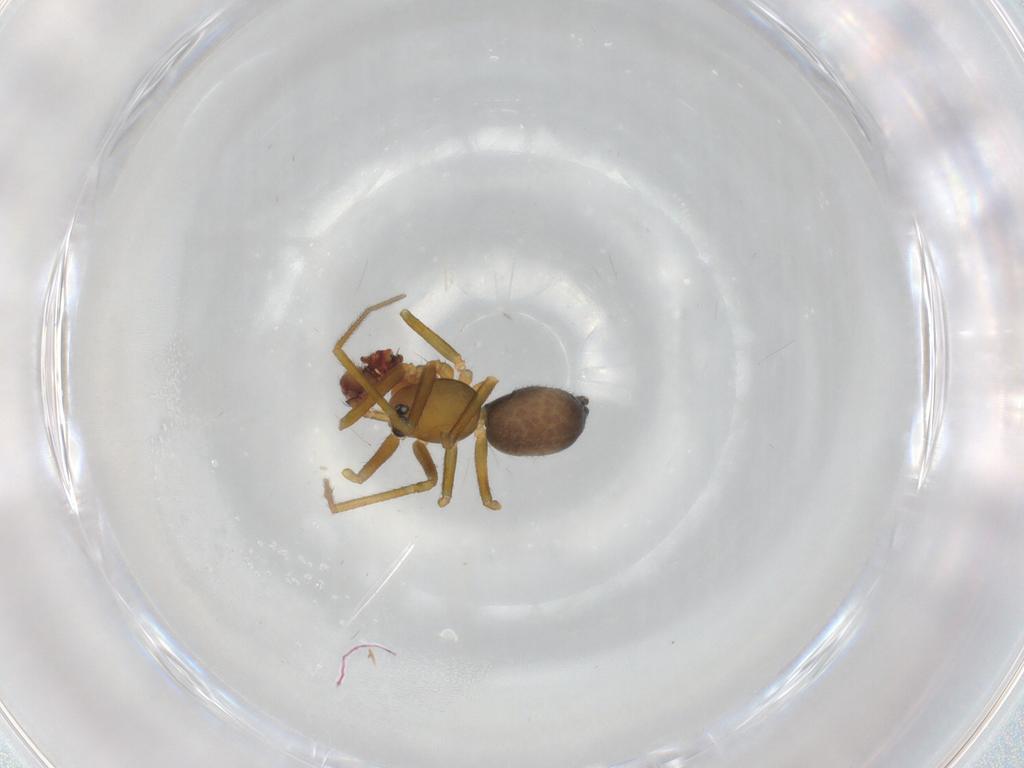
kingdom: Animalia
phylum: Arthropoda
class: Arachnida
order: Araneae
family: Linyphiidae
